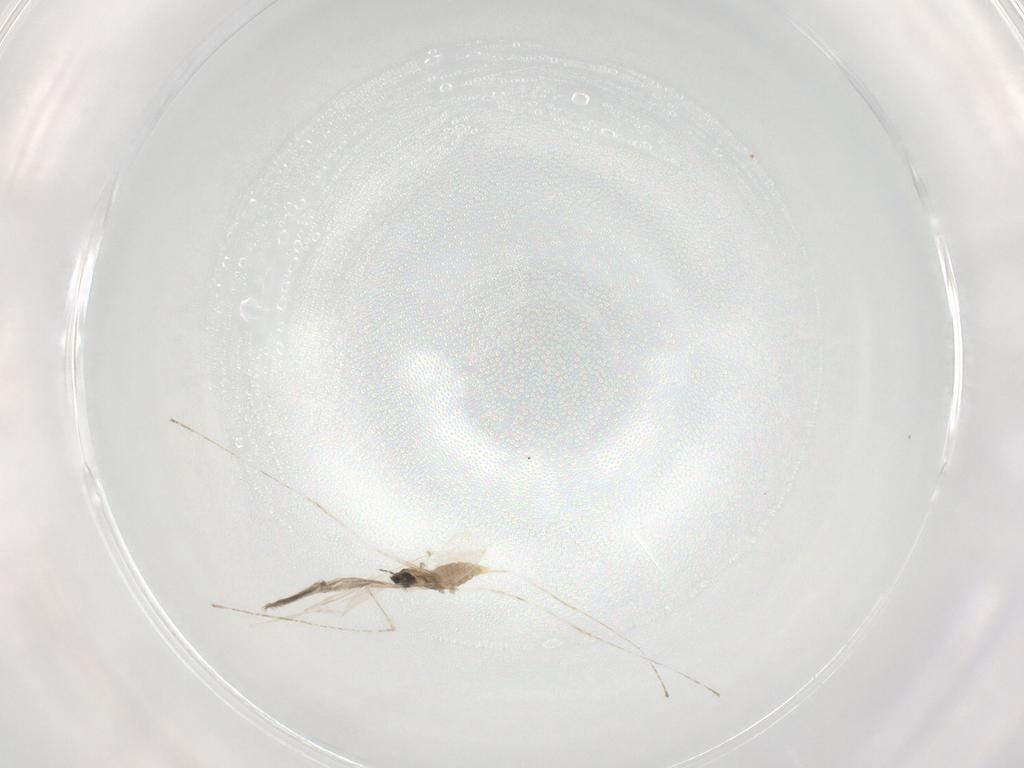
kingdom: Animalia
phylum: Arthropoda
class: Insecta
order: Diptera
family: Cecidomyiidae
